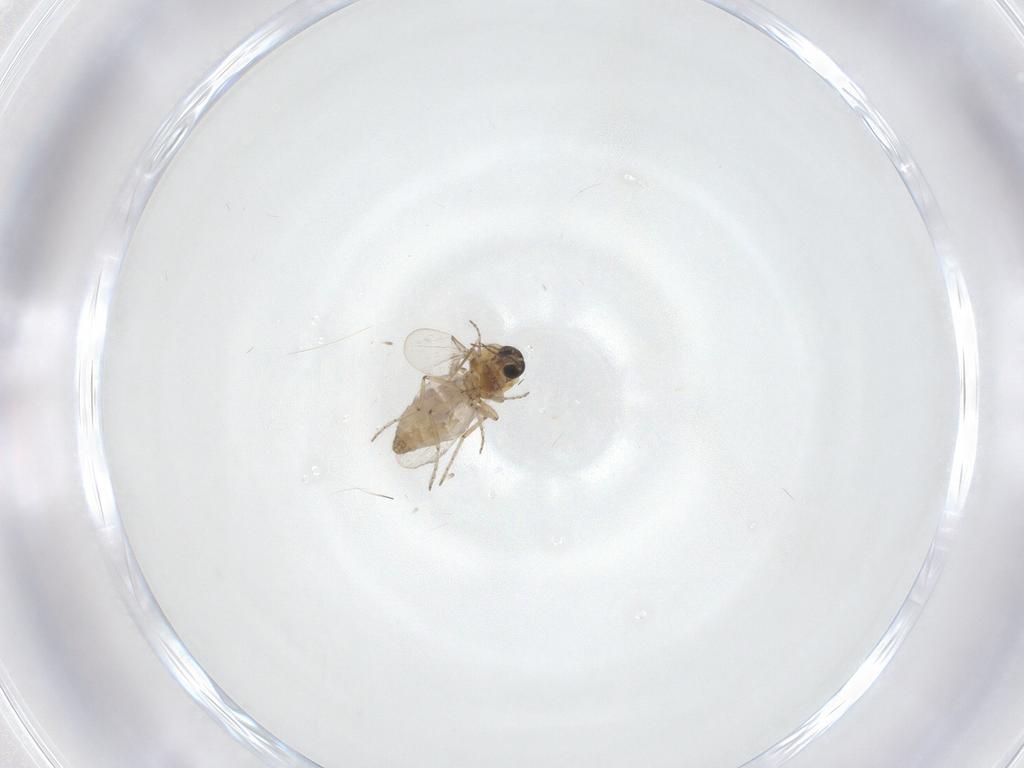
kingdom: Animalia
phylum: Arthropoda
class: Insecta
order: Diptera
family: Ceratopogonidae
